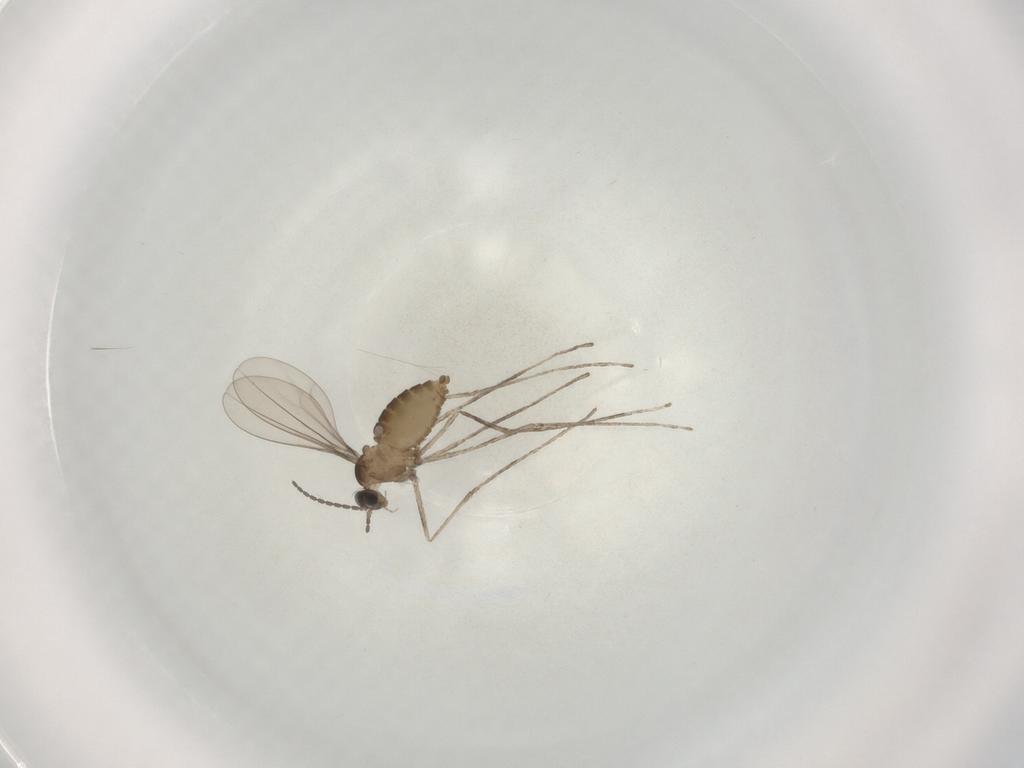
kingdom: Animalia
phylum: Arthropoda
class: Insecta
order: Diptera
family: Cecidomyiidae
